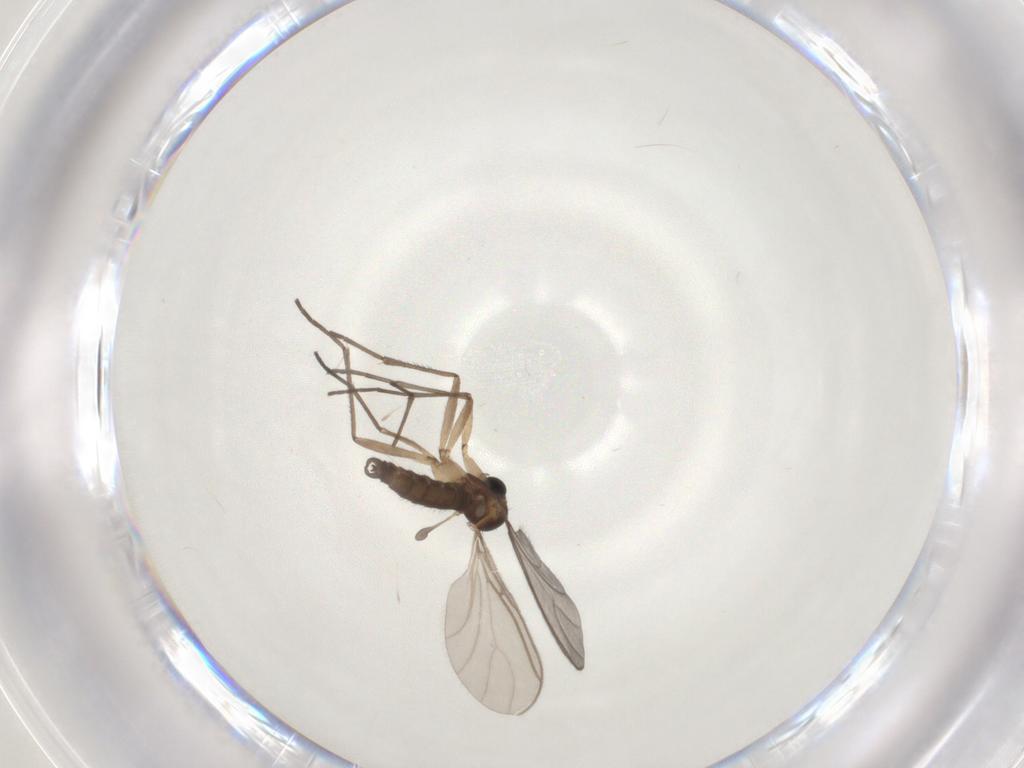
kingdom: Animalia
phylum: Arthropoda
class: Insecta
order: Diptera
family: Sciaridae
